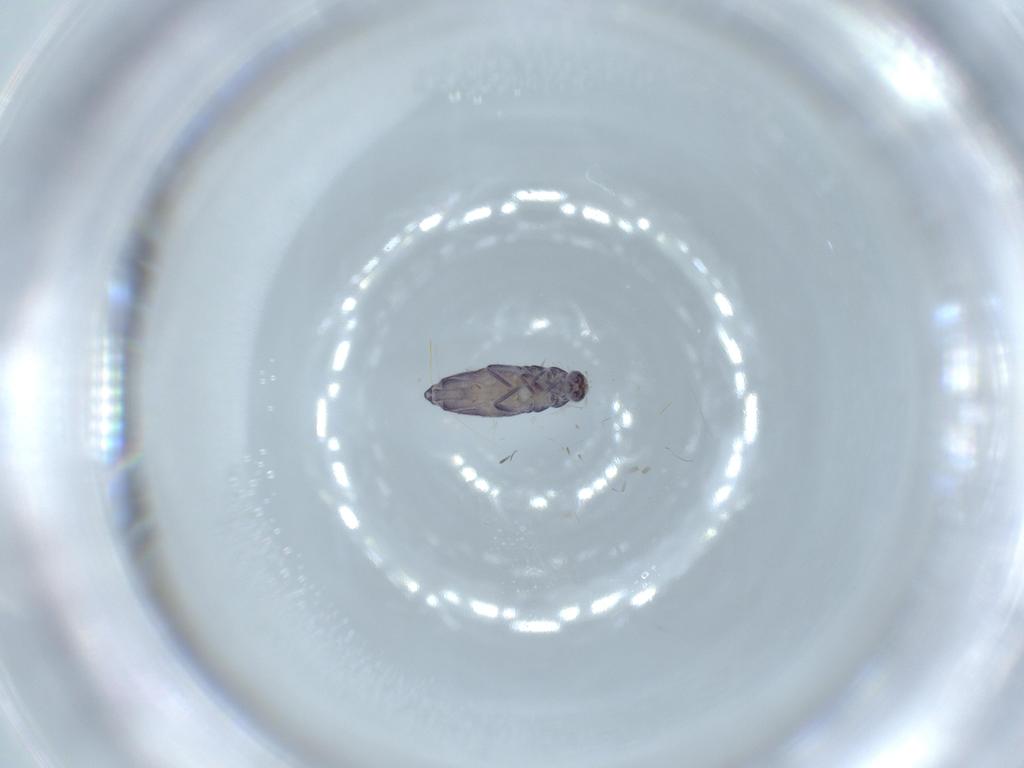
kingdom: Animalia
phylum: Arthropoda
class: Collembola
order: Entomobryomorpha
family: Entomobryidae
